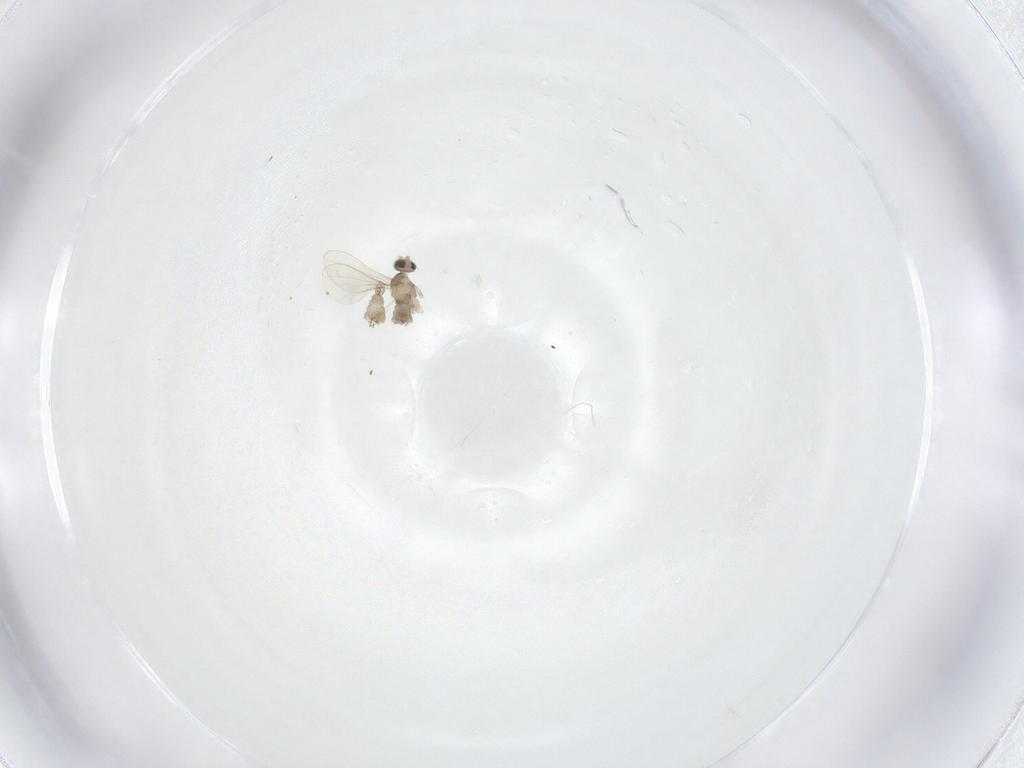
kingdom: Animalia
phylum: Arthropoda
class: Insecta
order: Diptera
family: Cecidomyiidae
